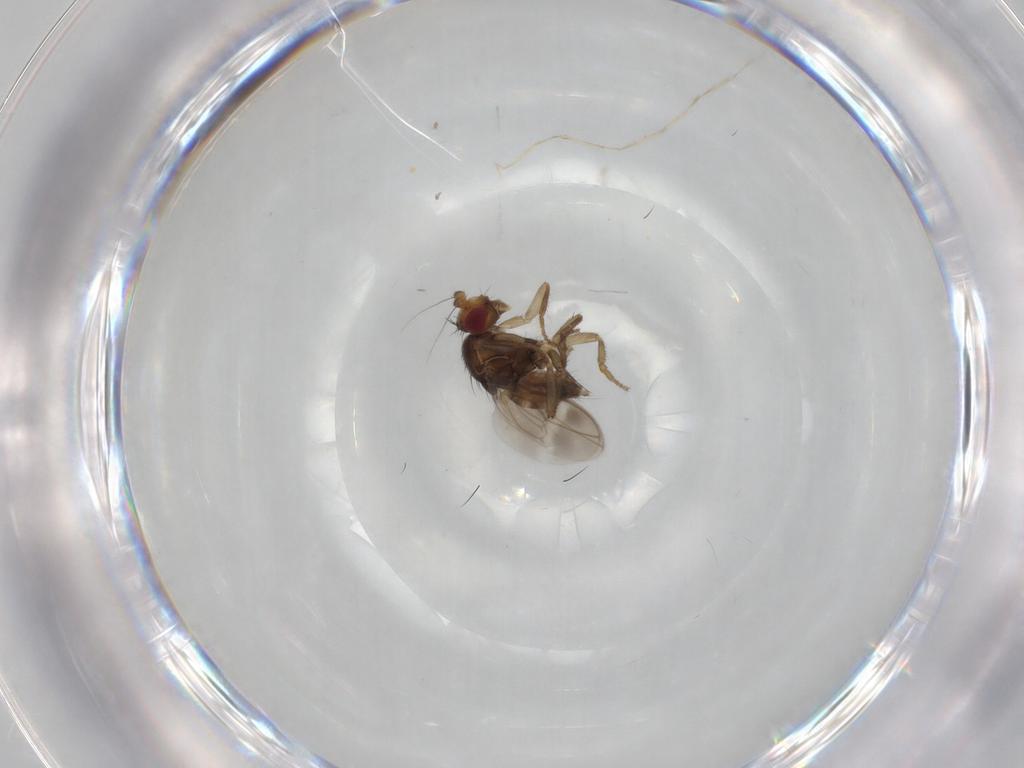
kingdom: Animalia
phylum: Arthropoda
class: Insecta
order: Diptera
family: Sphaeroceridae
